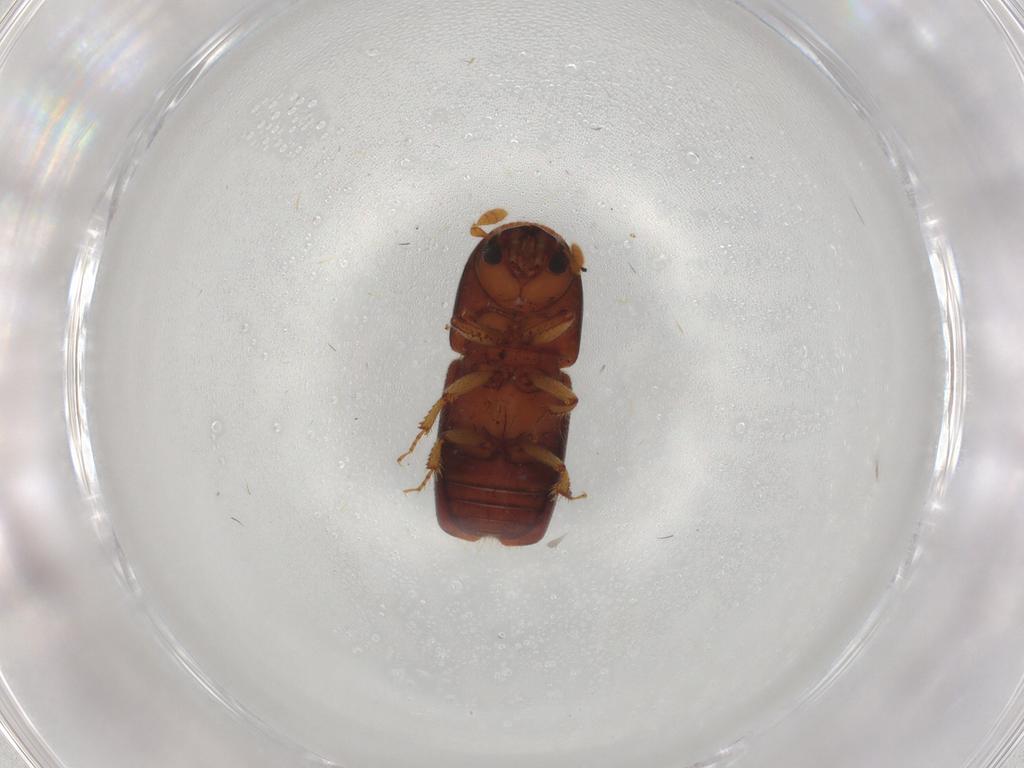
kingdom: Animalia
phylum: Arthropoda
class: Insecta
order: Coleoptera
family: Curculionidae
